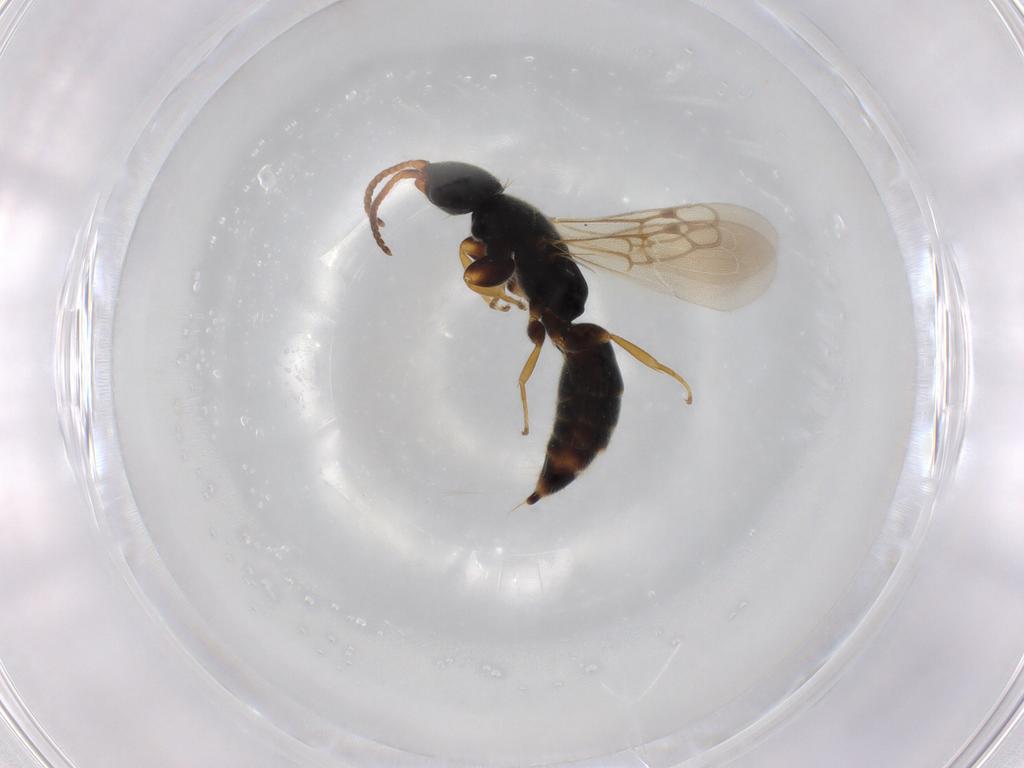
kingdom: Animalia
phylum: Arthropoda
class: Insecta
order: Hymenoptera
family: Bethylidae
